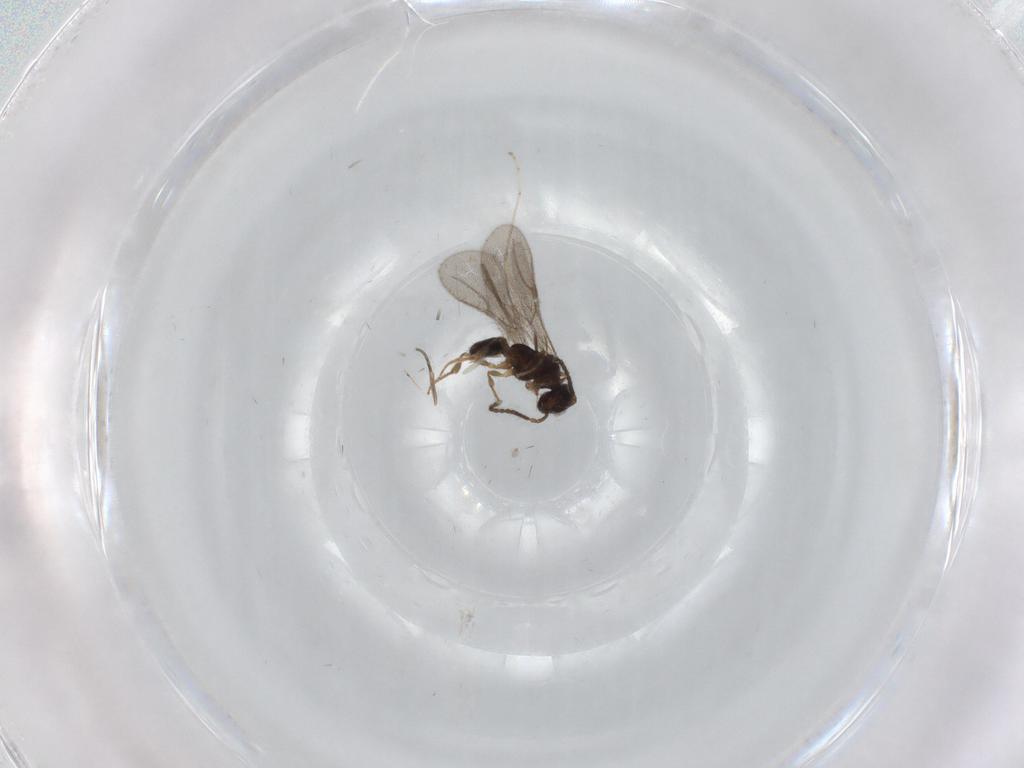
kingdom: Animalia
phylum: Arthropoda
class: Insecta
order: Hymenoptera
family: Bethylidae
